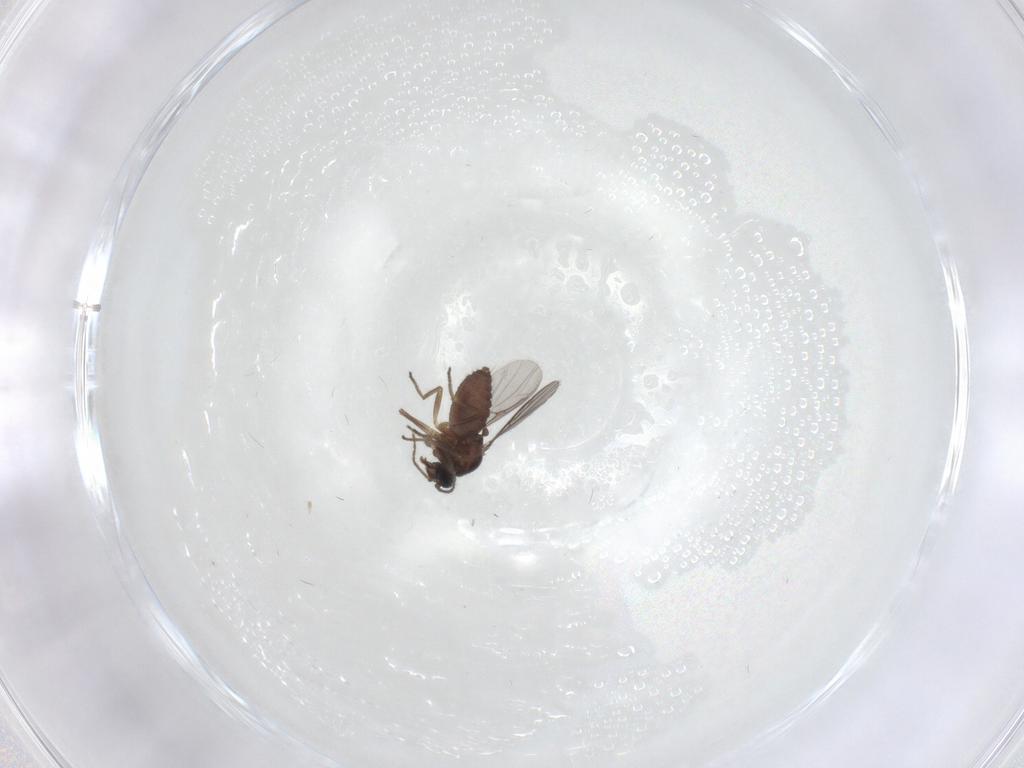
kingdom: Animalia
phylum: Arthropoda
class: Insecta
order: Diptera
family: Ceratopogonidae
